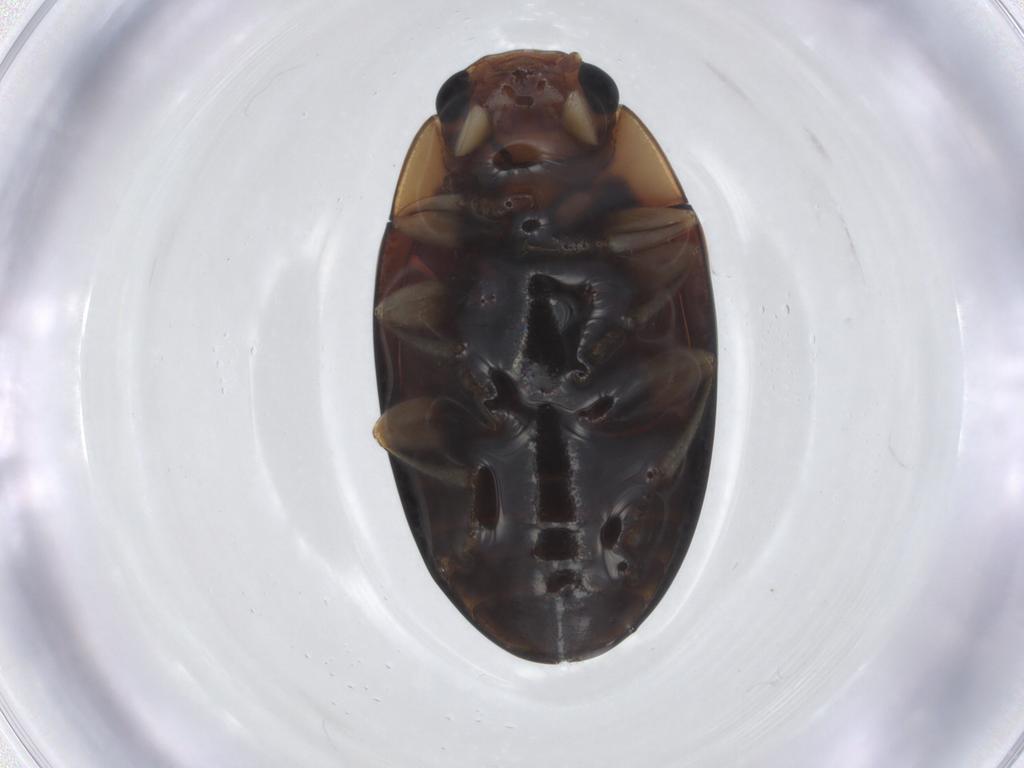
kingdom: Animalia
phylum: Arthropoda
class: Insecta
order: Coleoptera
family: Erotylidae
